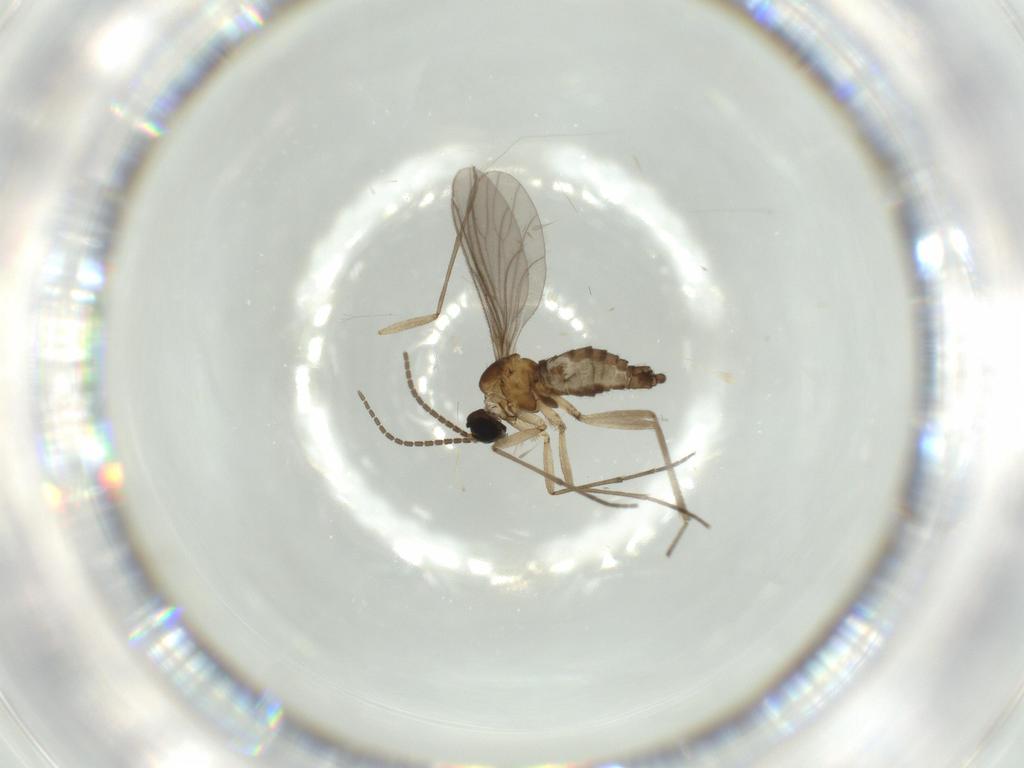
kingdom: Animalia
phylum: Arthropoda
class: Insecta
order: Diptera
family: Sciaridae
